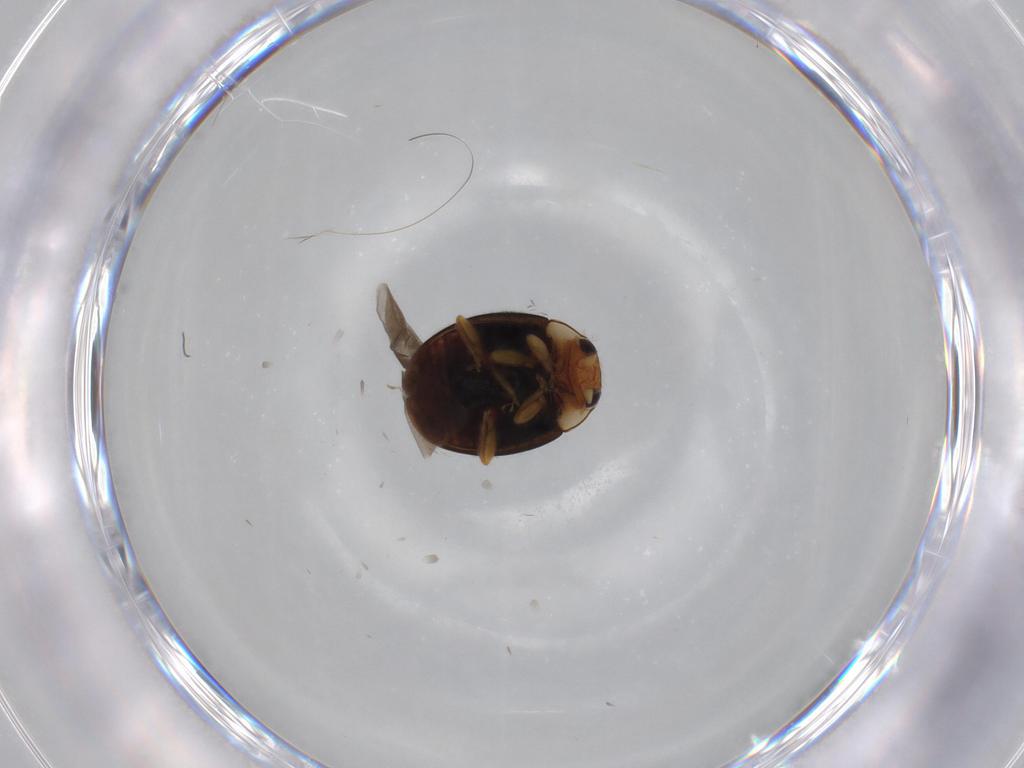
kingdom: Animalia
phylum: Arthropoda
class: Insecta
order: Coleoptera
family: Coccinellidae
